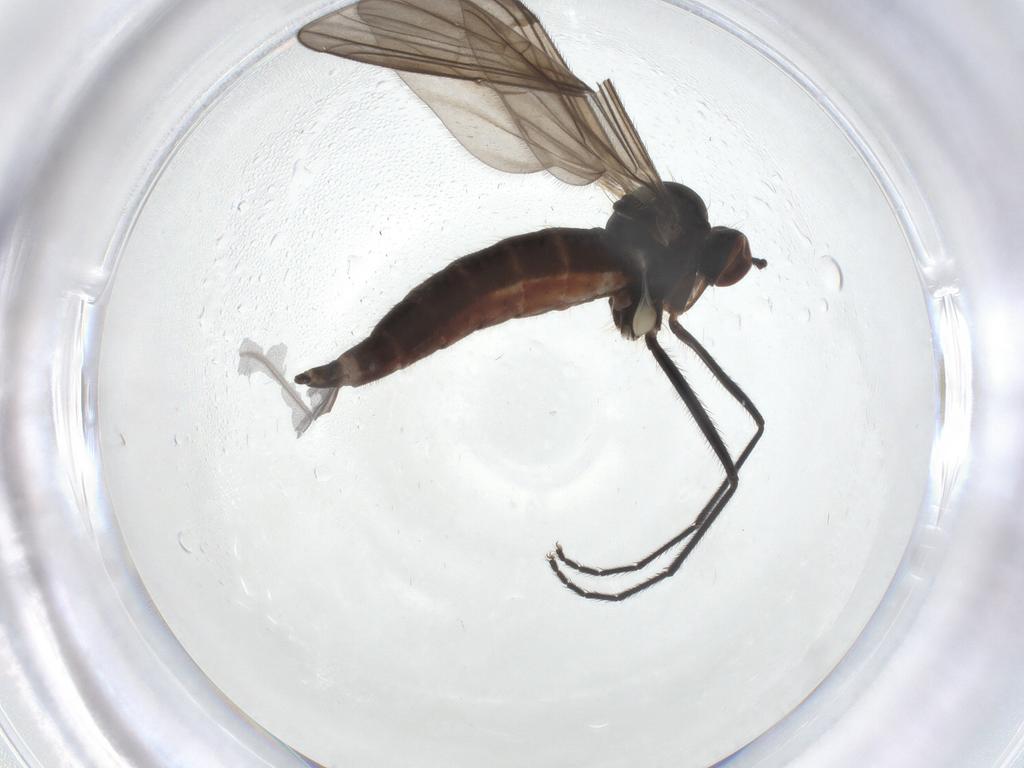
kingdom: Animalia
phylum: Arthropoda
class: Insecta
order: Diptera
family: Empididae
